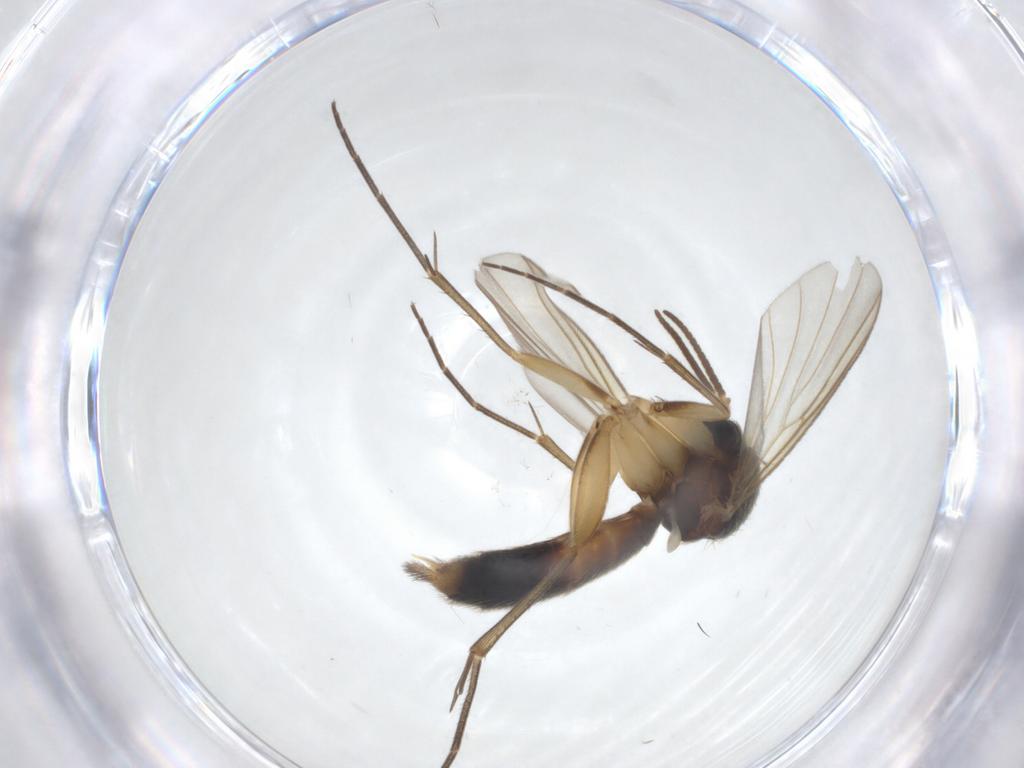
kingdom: Animalia
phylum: Arthropoda
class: Insecta
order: Diptera
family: Chironomidae
